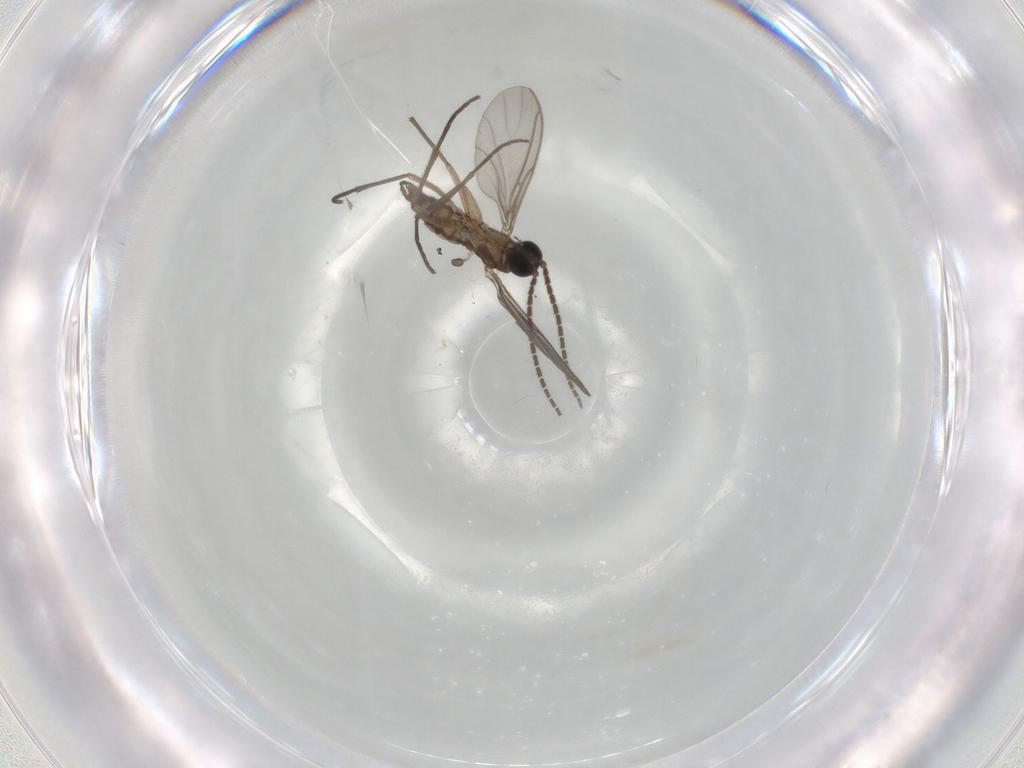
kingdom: Animalia
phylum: Arthropoda
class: Insecta
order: Diptera
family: Sciaridae
